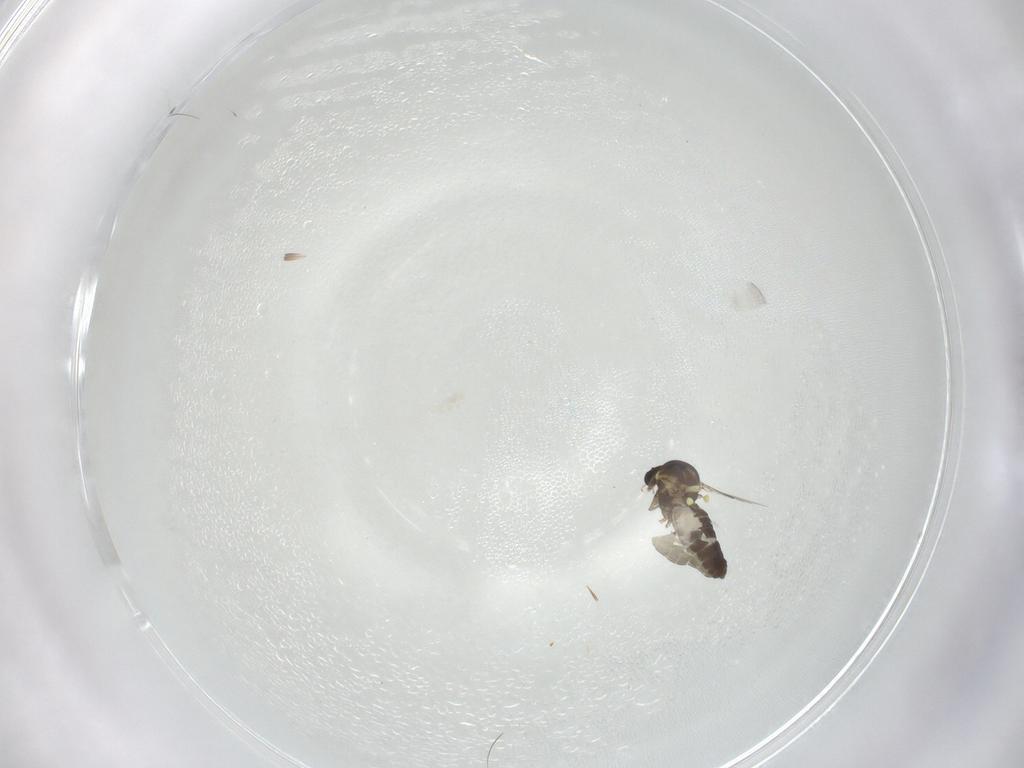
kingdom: Animalia
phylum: Arthropoda
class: Insecta
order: Diptera
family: Ceratopogonidae
